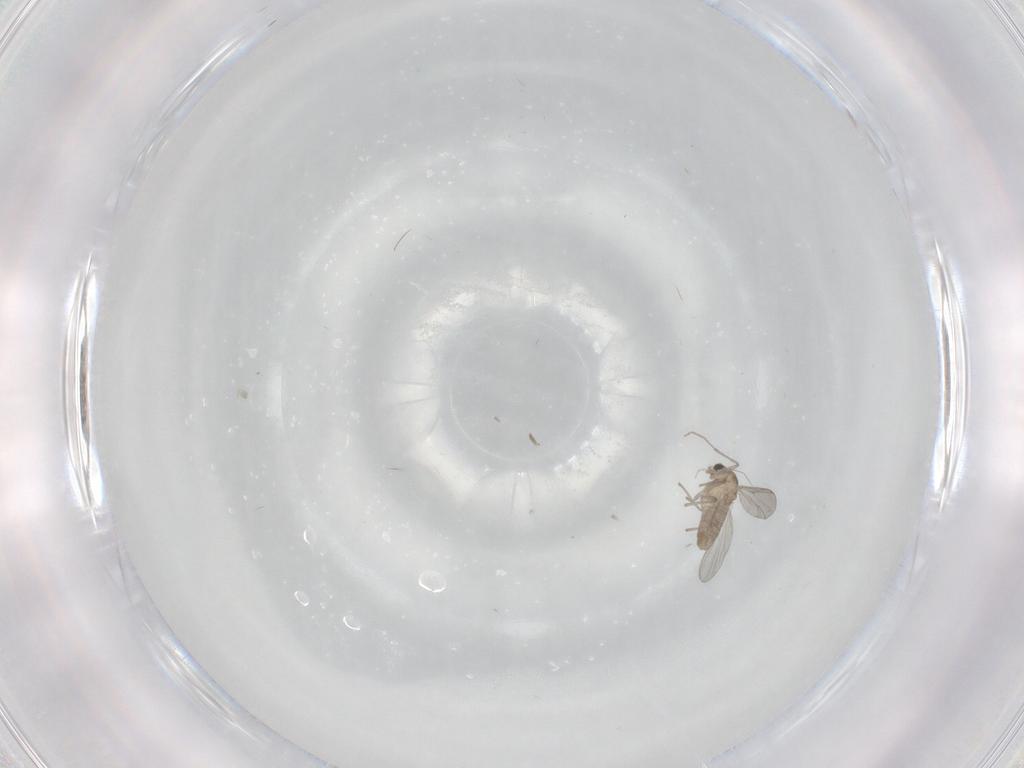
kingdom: Animalia
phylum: Arthropoda
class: Insecta
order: Diptera
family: Chironomidae
